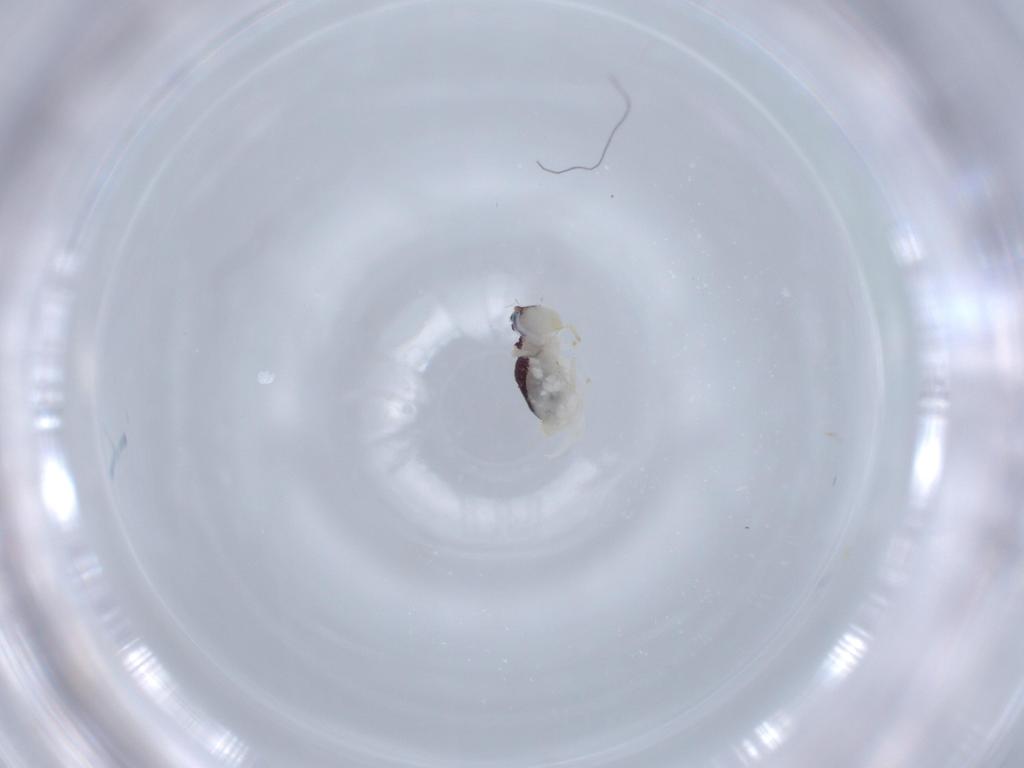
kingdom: Animalia
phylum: Arthropoda
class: Collembola
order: Symphypleona
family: Bourletiellidae
